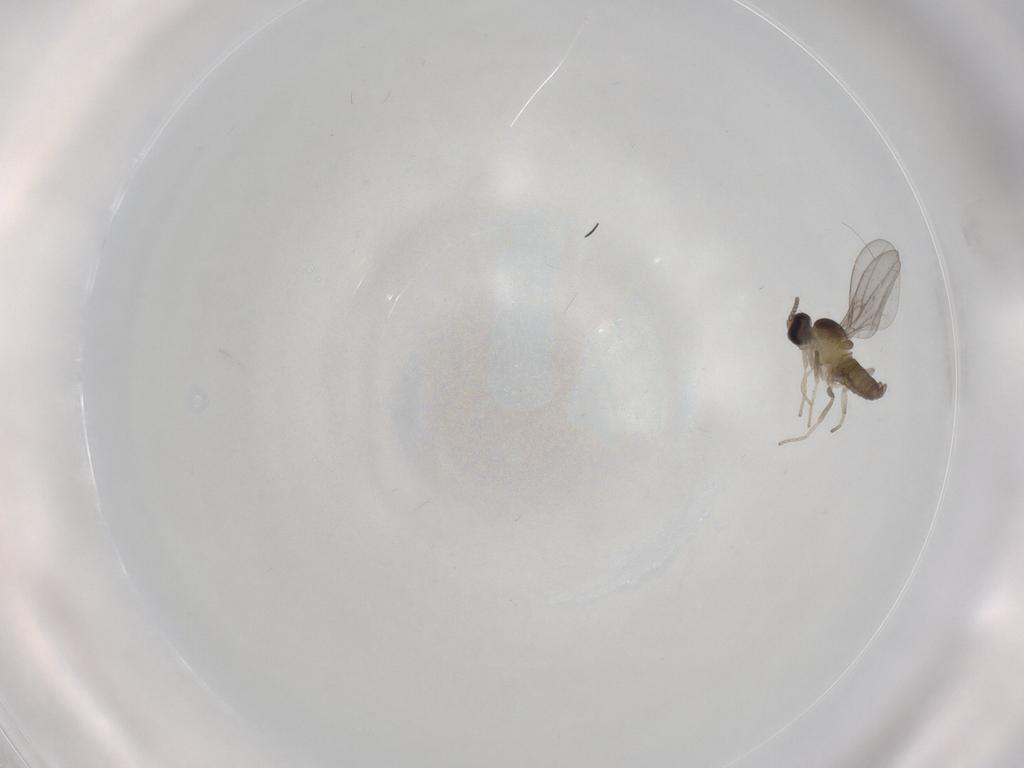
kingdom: Animalia
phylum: Arthropoda
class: Insecta
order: Diptera
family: Cecidomyiidae
